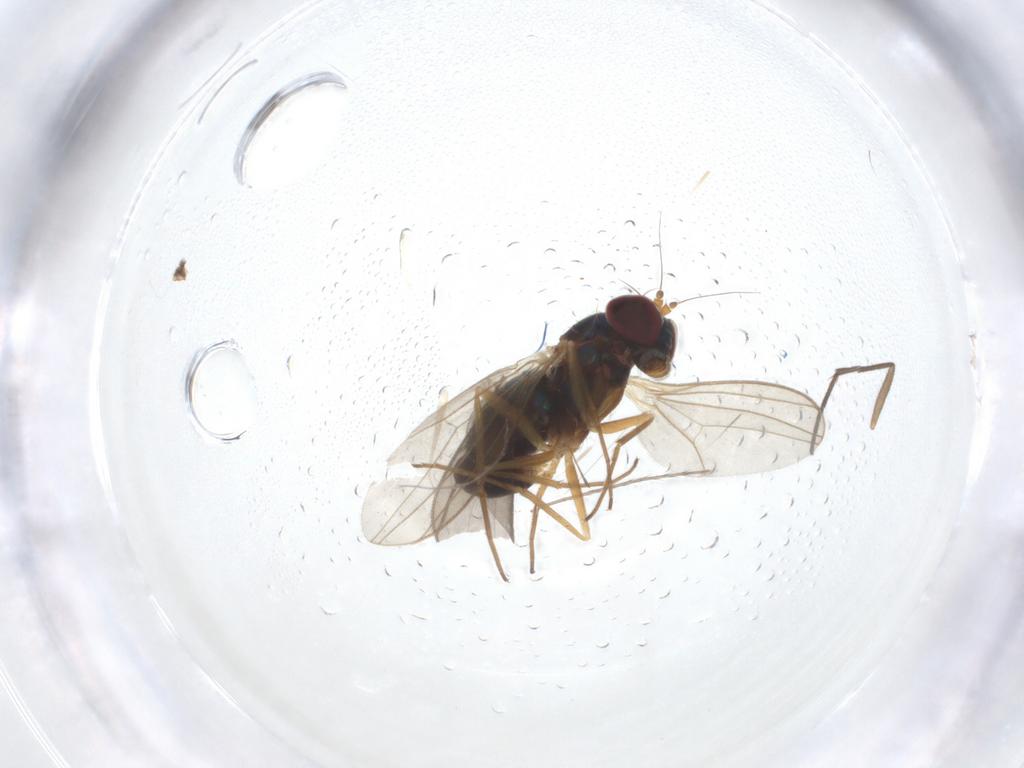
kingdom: Animalia
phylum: Arthropoda
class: Insecta
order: Diptera
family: Dolichopodidae
